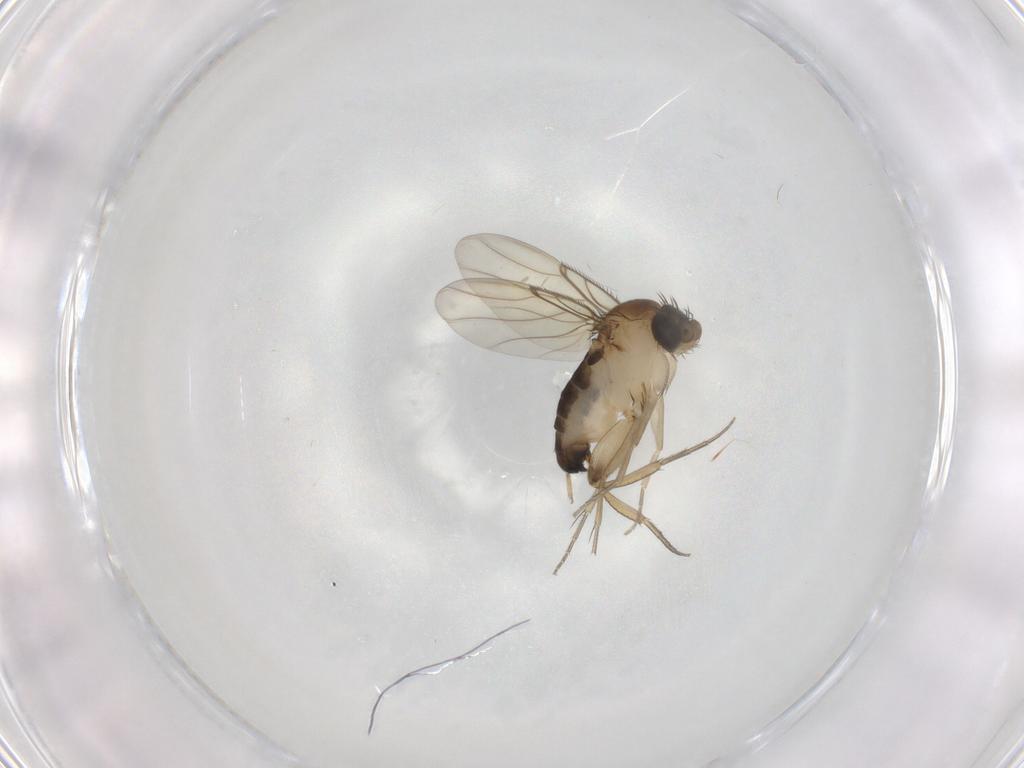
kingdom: Animalia
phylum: Arthropoda
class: Insecta
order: Diptera
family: Phoridae
